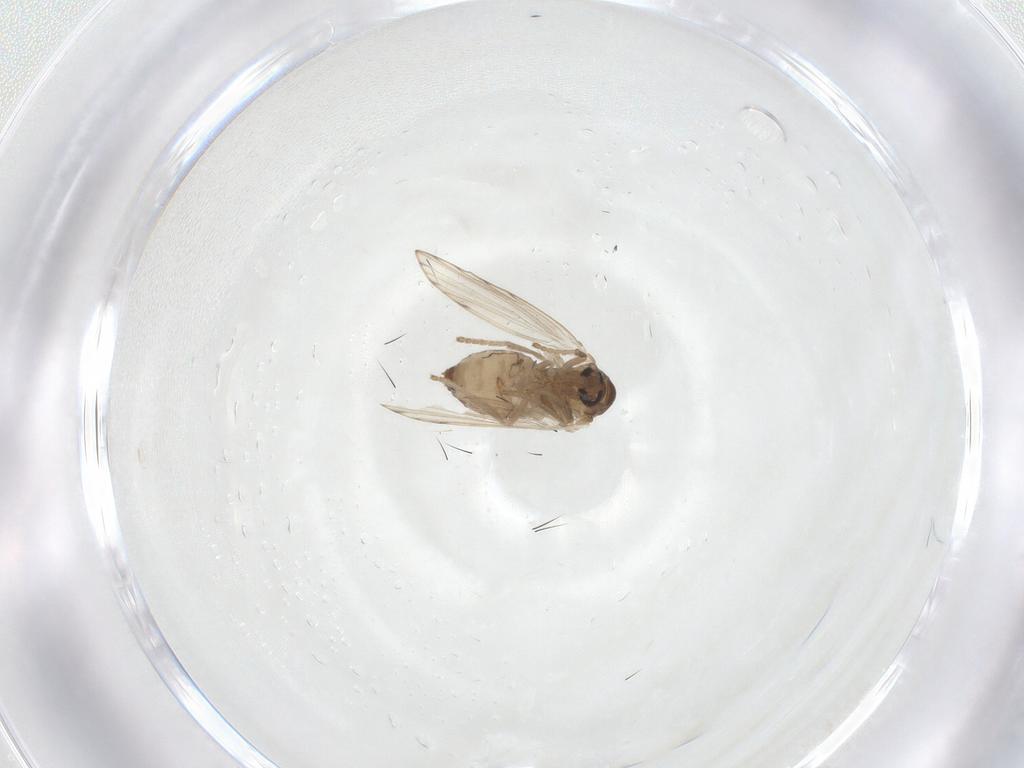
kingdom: Animalia
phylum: Arthropoda
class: Insecta
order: Diptera
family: Psychodidae
